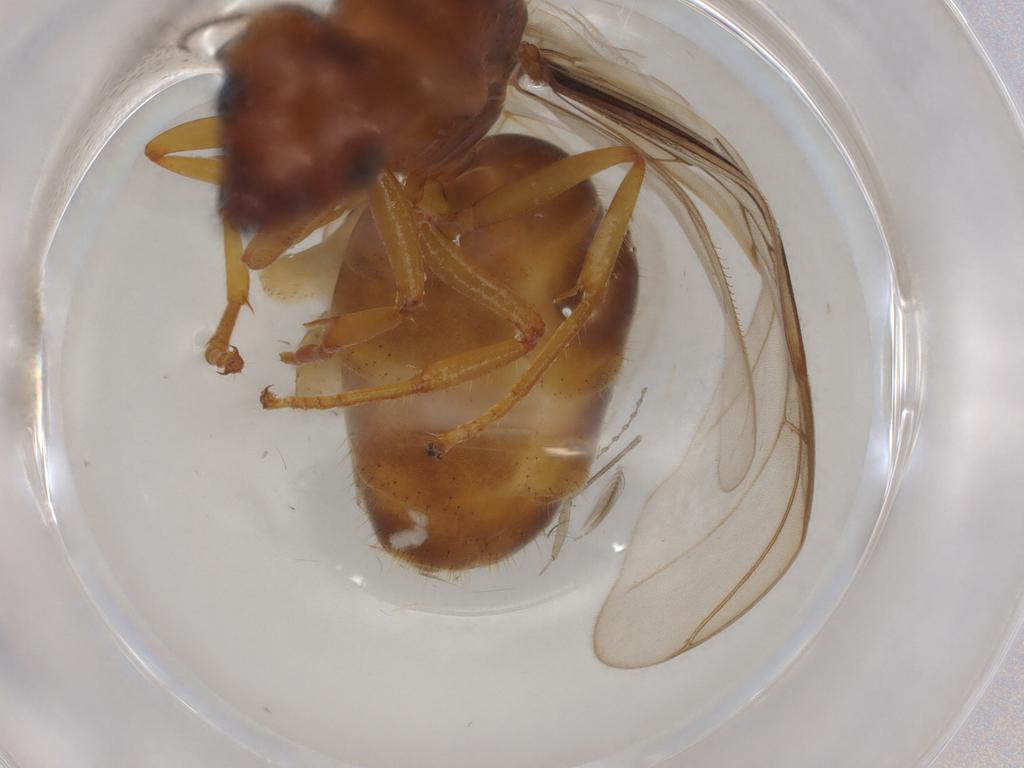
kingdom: Animalia
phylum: Arthropoda
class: Insecta
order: Hymenoptera
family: Formicidae
